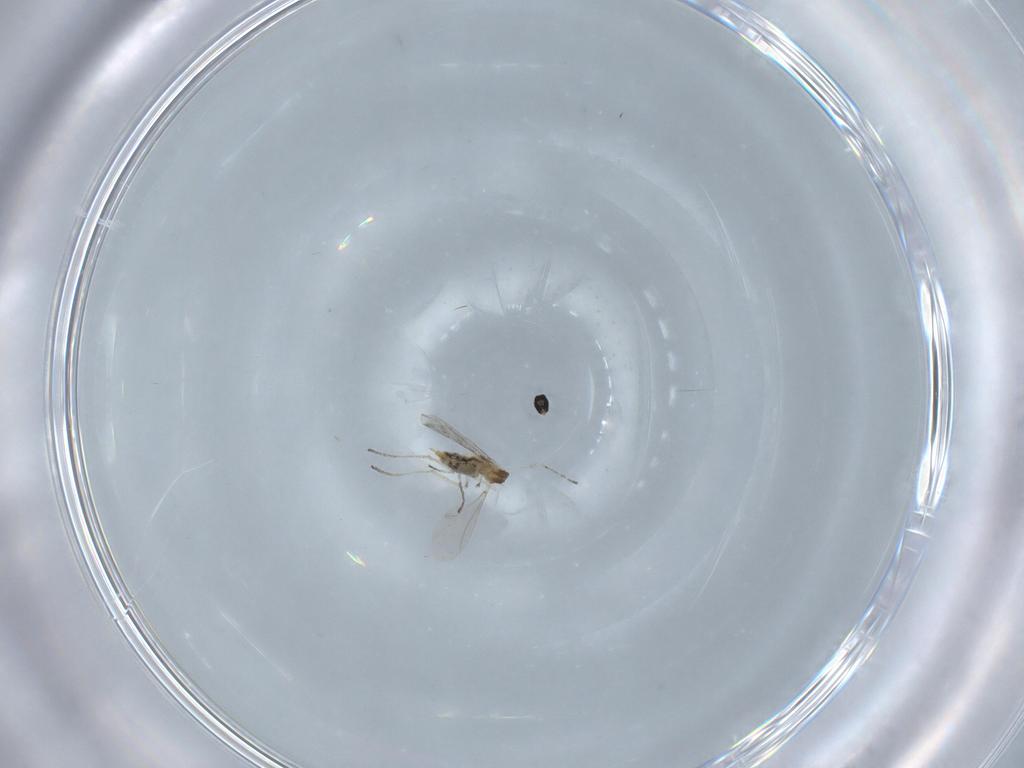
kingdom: Animalia
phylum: Arthropoda
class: Insecta
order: Diptera
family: Cecidomyiidae
